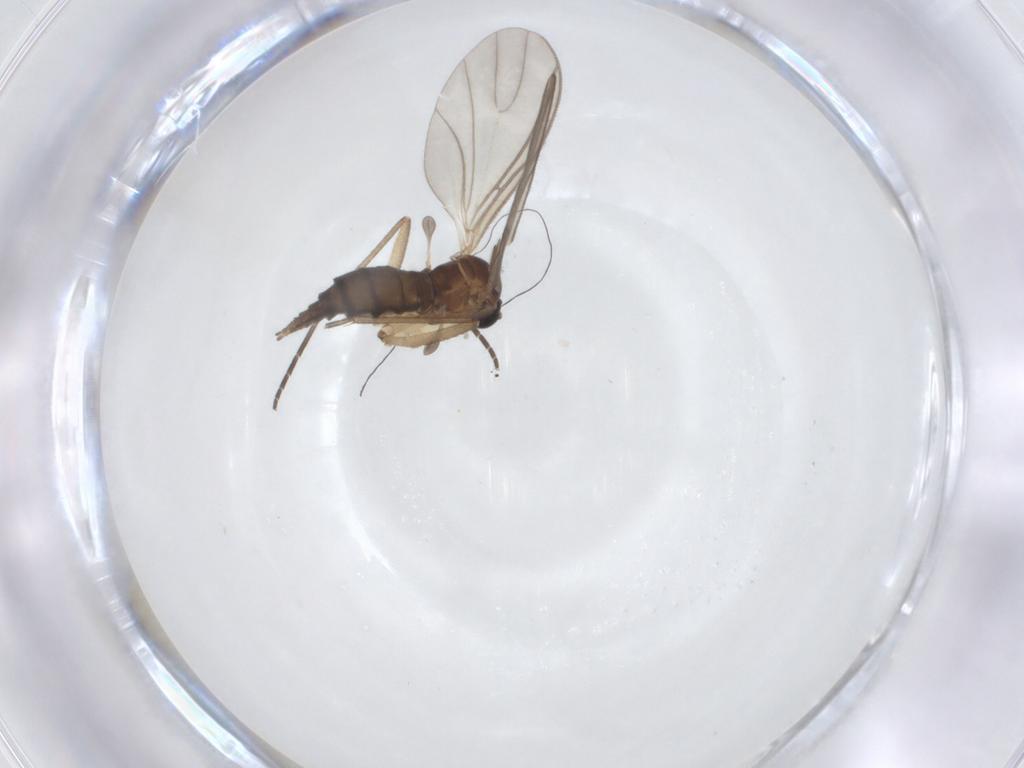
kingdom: Animalia
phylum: Arthropoda
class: Insecta
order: Diptera
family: Sciaridae
